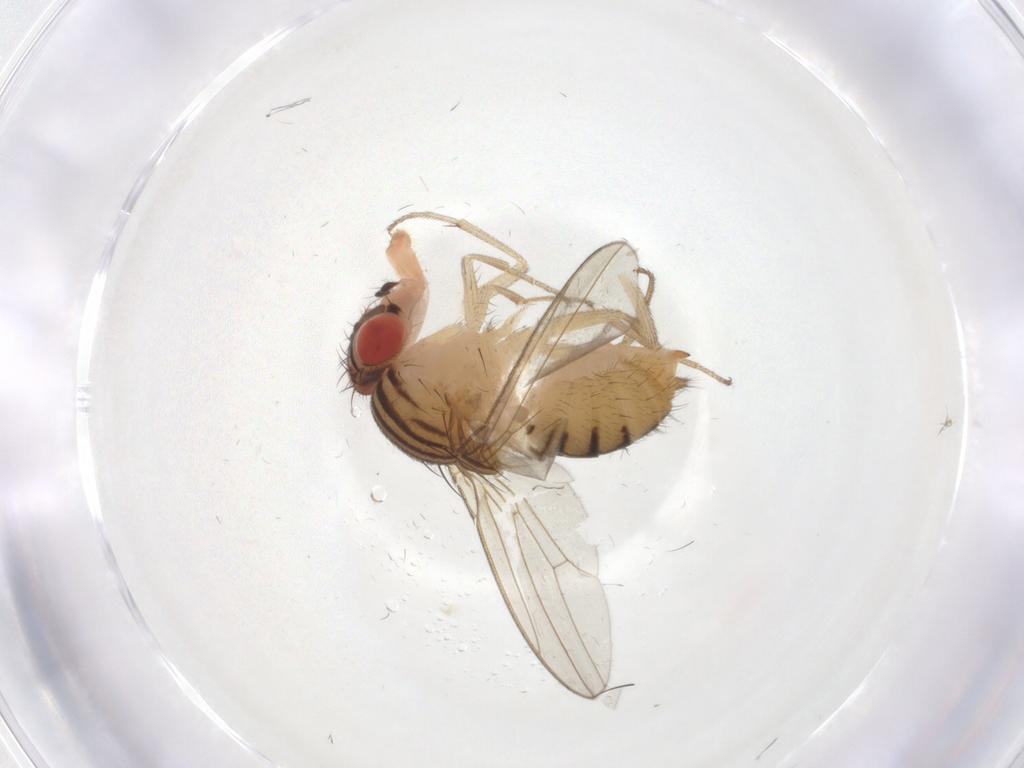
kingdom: Animalia
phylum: Arthropoda
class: Insecta
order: Diptera
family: Drosophilidae
